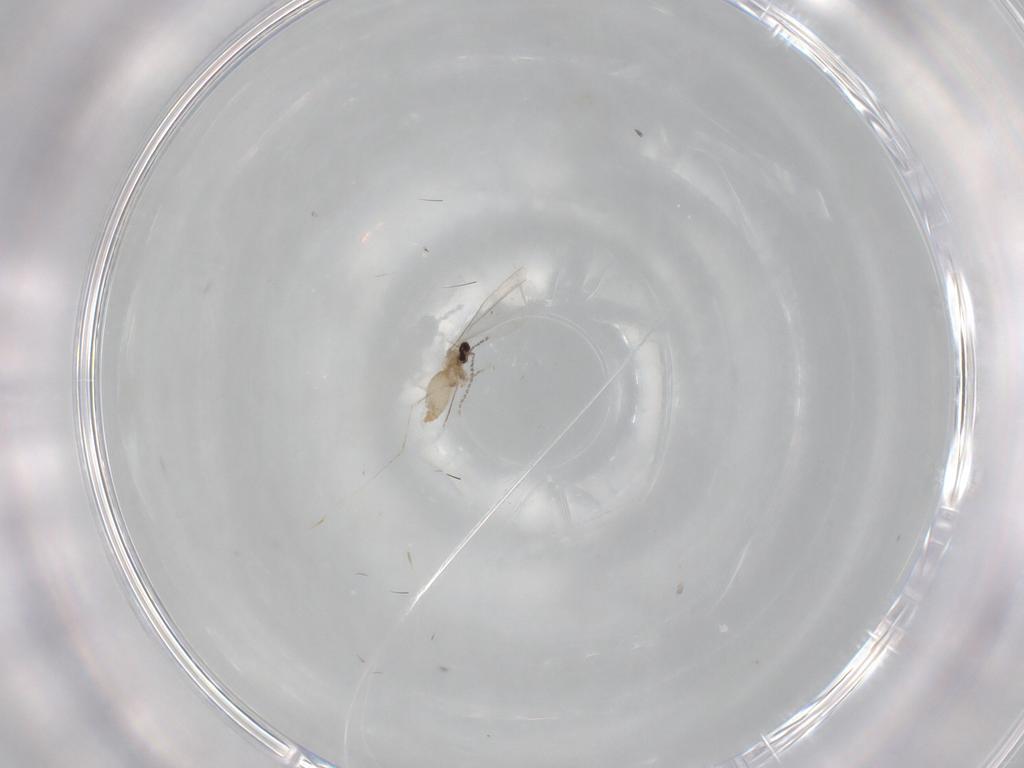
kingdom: Animalia
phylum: Arthropoda
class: Insecta
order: Diptera
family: Cecidomyiidae
